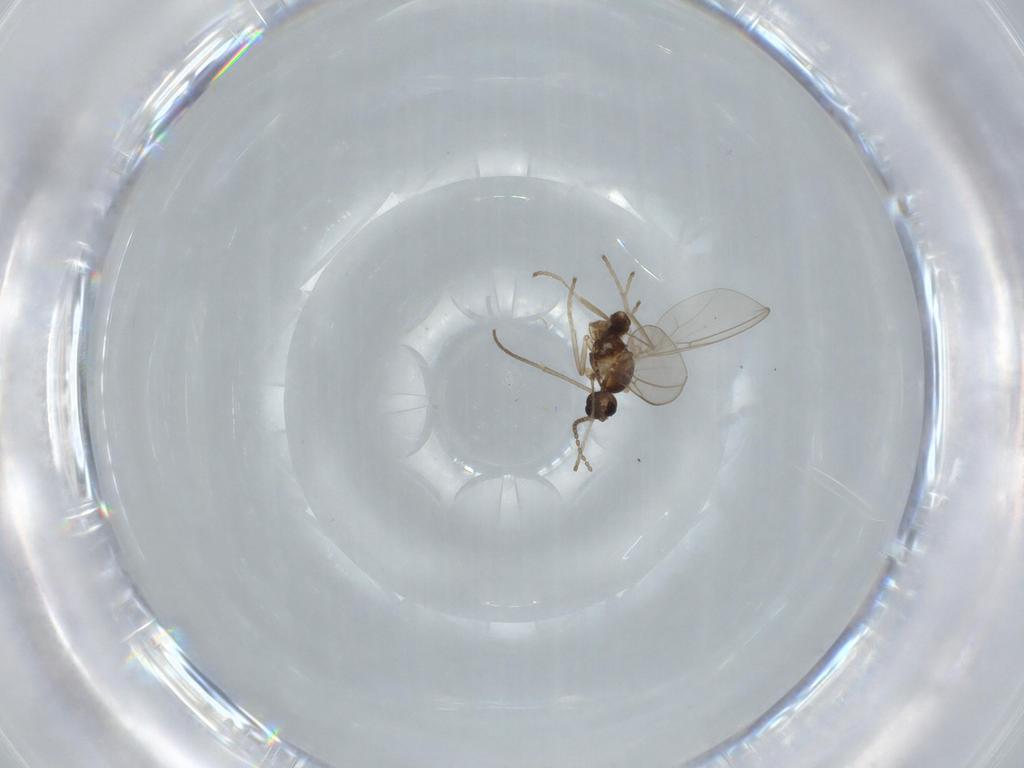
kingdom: Animalia
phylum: Arthropoda
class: Insecta
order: Diptera
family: Cecidomyiidae
